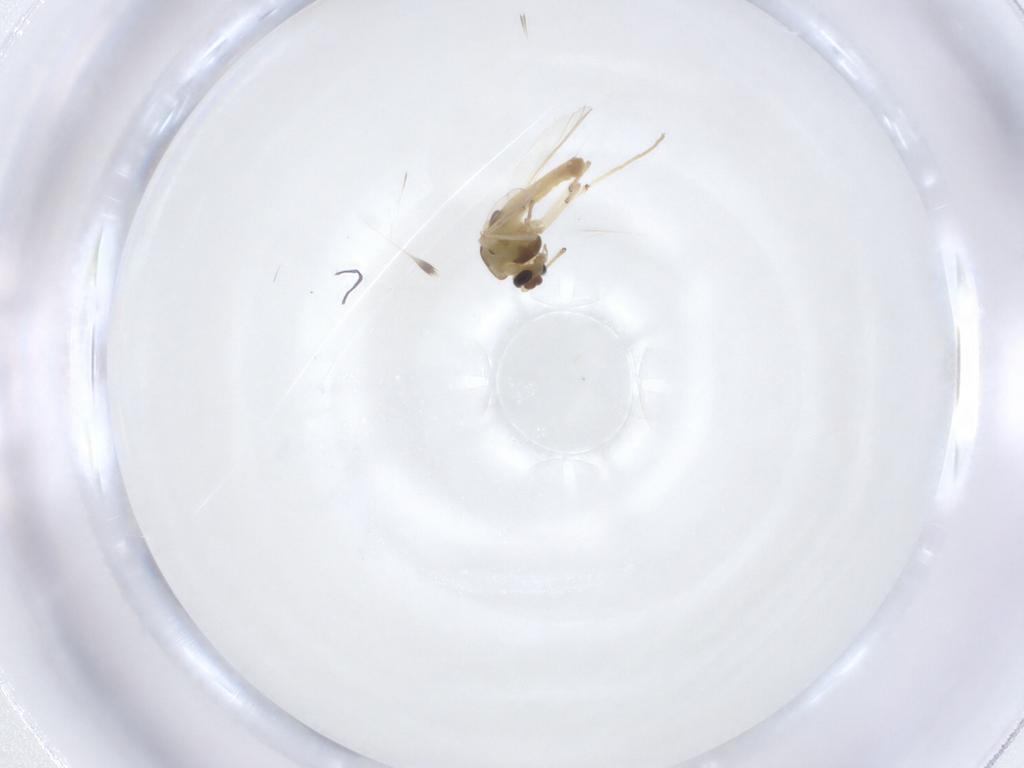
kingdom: Animalia
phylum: Arthropoda
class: Insecta
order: Diptera
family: Chironomidae
